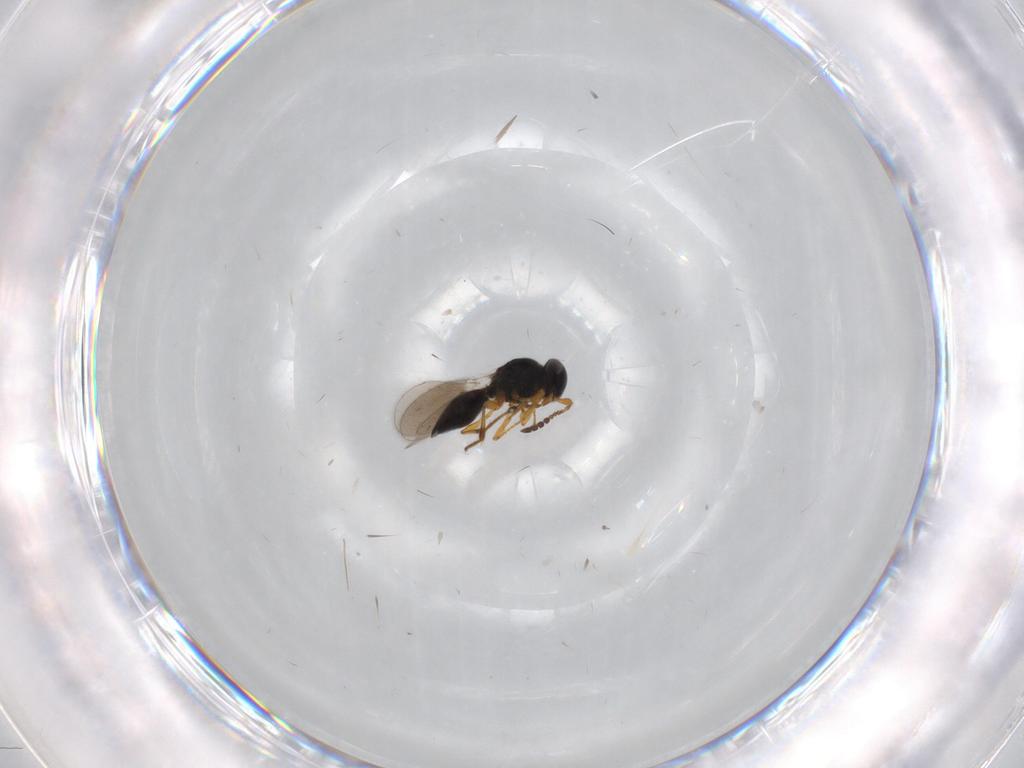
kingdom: Animalia
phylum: Arthropoda
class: Insecta
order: Hymenoptera
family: Platygastridae
